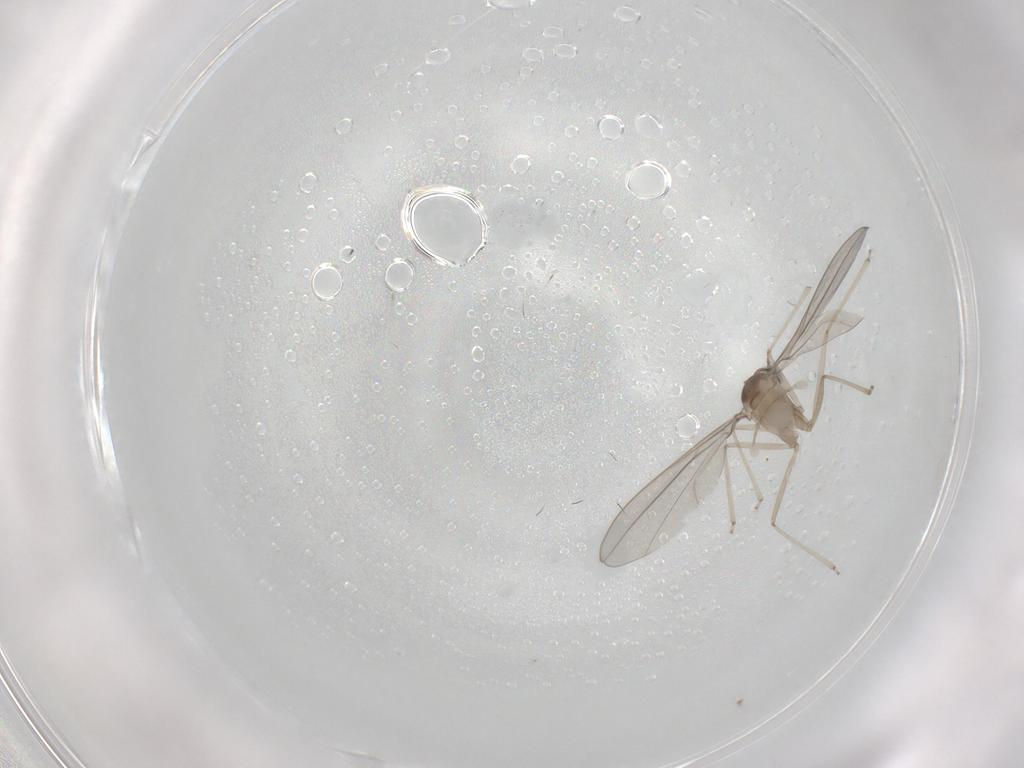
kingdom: Animalia
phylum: Arthropoda
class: Insecta
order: Diptera
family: Cecidomyiidae
